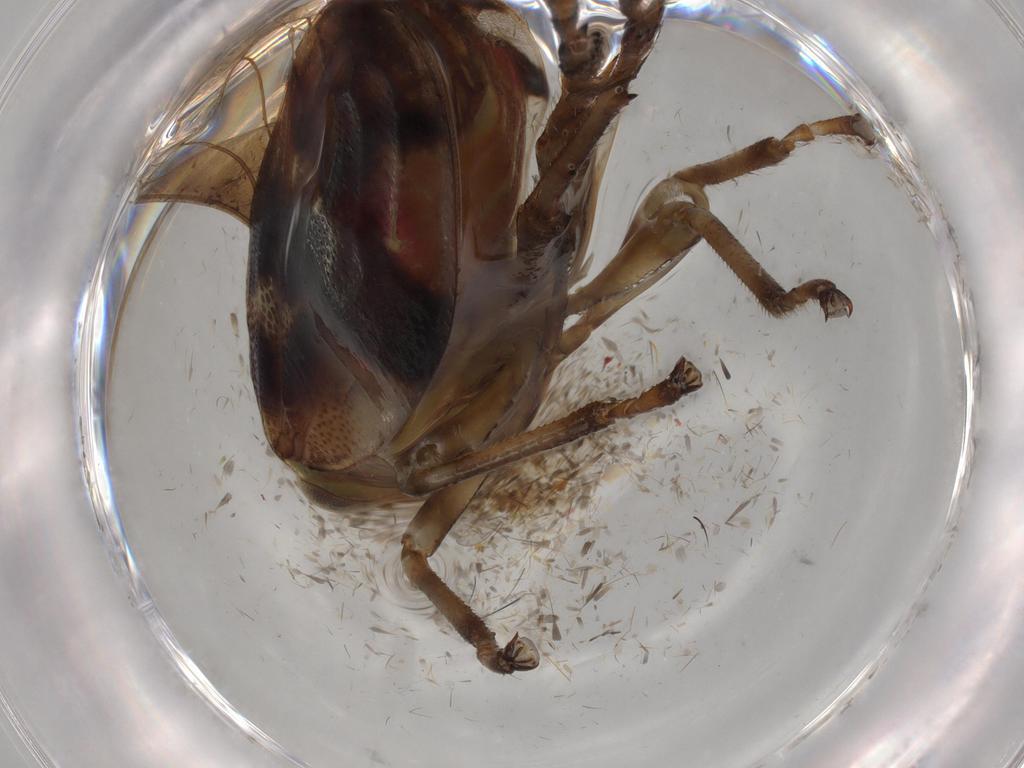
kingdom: Animalia
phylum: Arthropoda
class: Insecta
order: Hemiptera
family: Aphrophoridae
